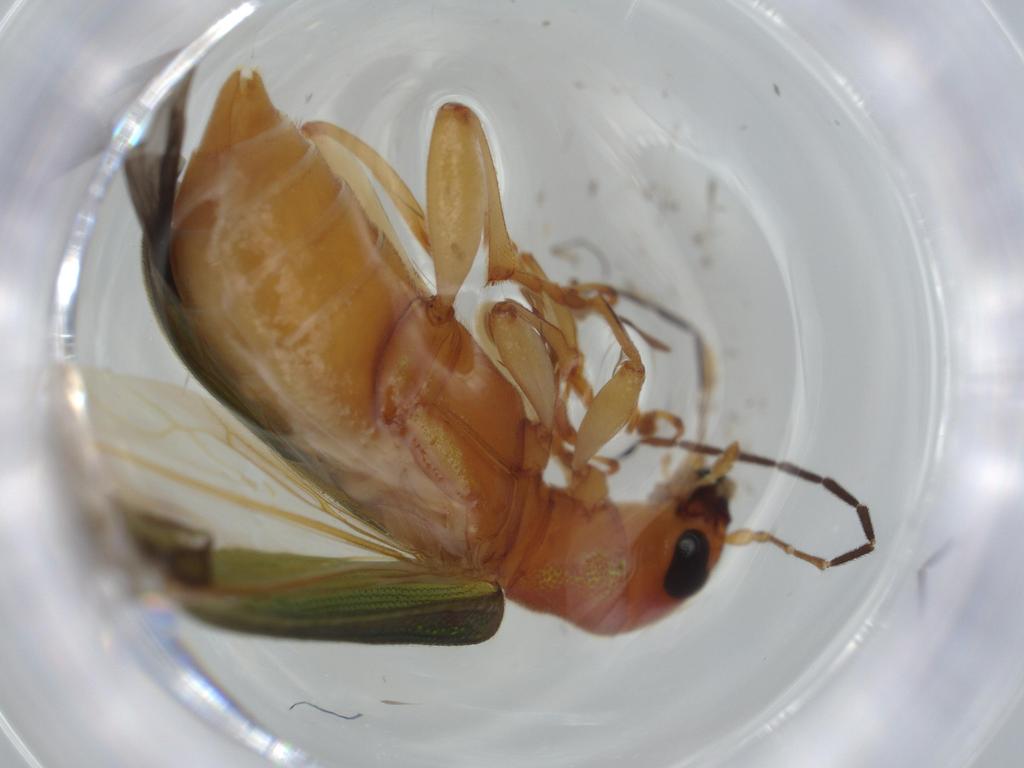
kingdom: Animalia
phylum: Arthropoda
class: Insecta
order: Coleoptera
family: Chrysomelidae
